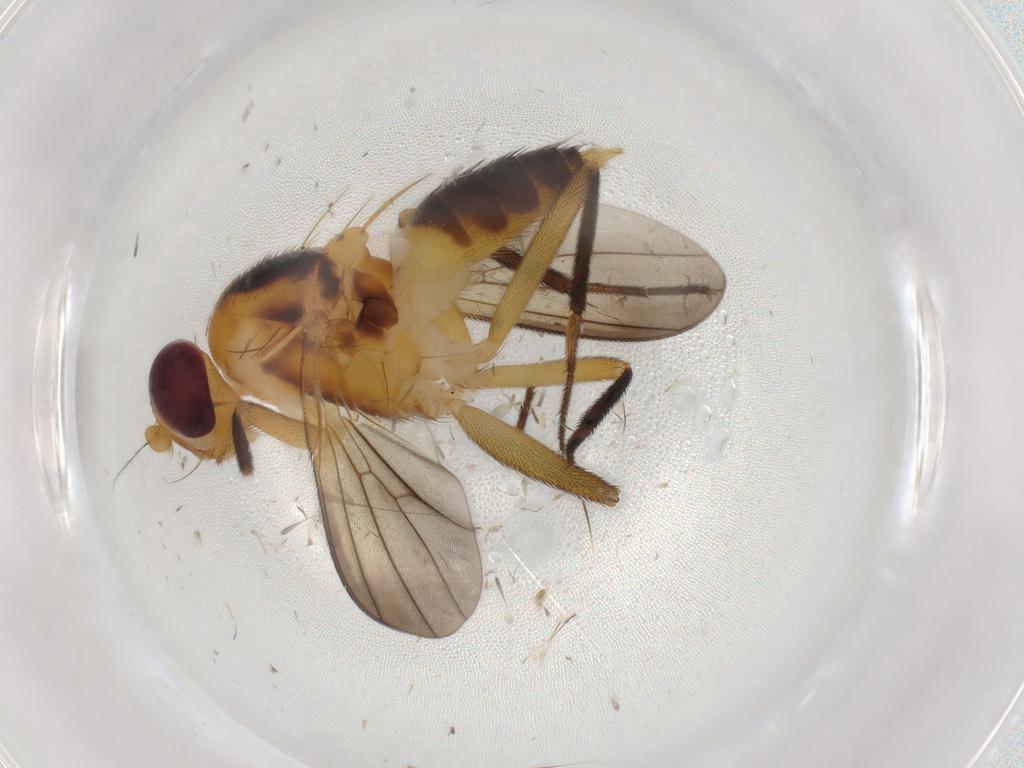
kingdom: Animalia
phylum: Arthropoda
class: Insecta
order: Diptera
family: Clusiidae
